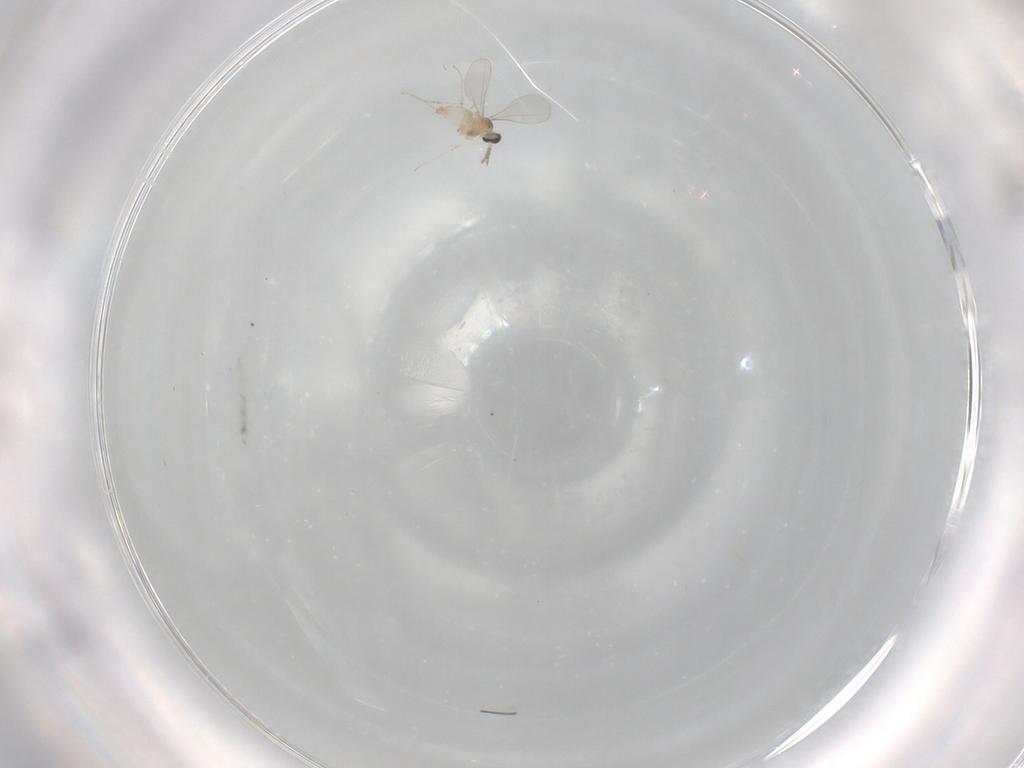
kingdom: Animalia
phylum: Arthropoda
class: Insecta
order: Diptera
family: Cecidomyiidae
